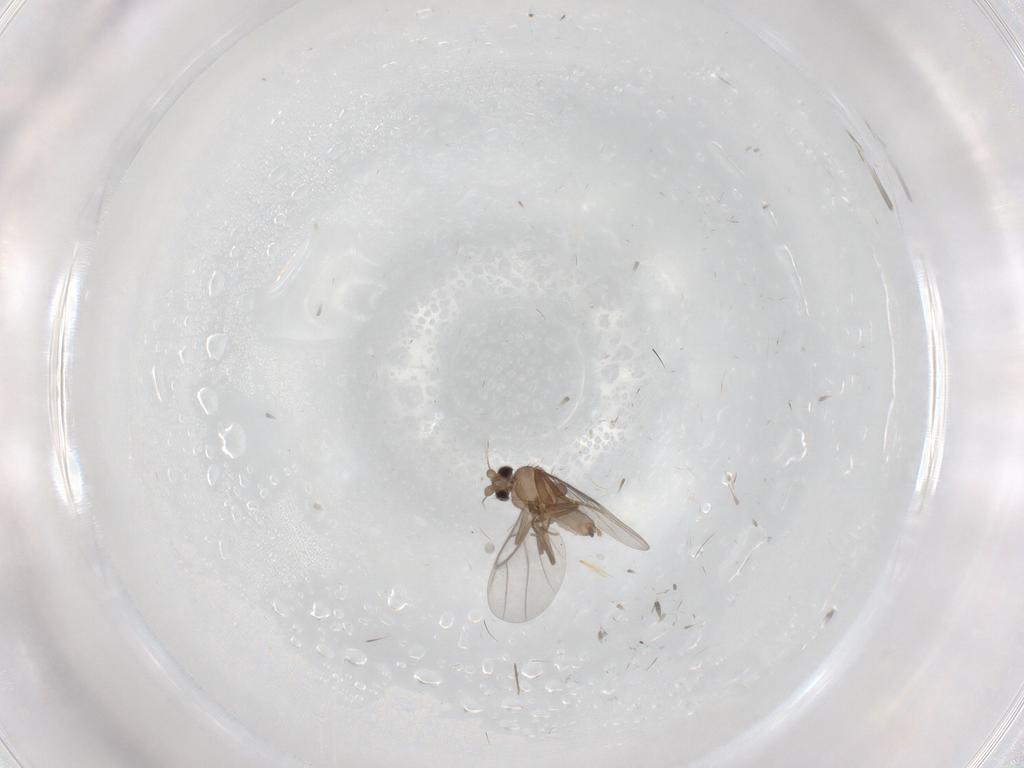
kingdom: Animalia
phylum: Arthropoda
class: Insecta
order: Diptera
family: Chironomidae
